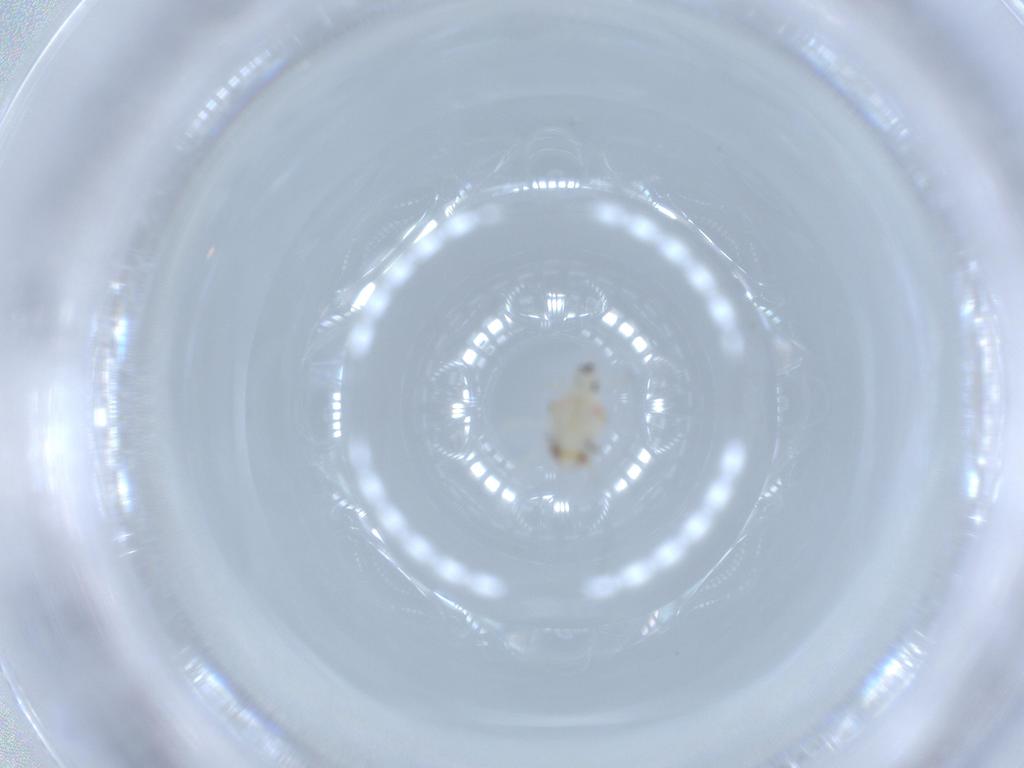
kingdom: Animalia
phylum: Arthropoda
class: Insecta
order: Hemiptera
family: Nogodinidae
